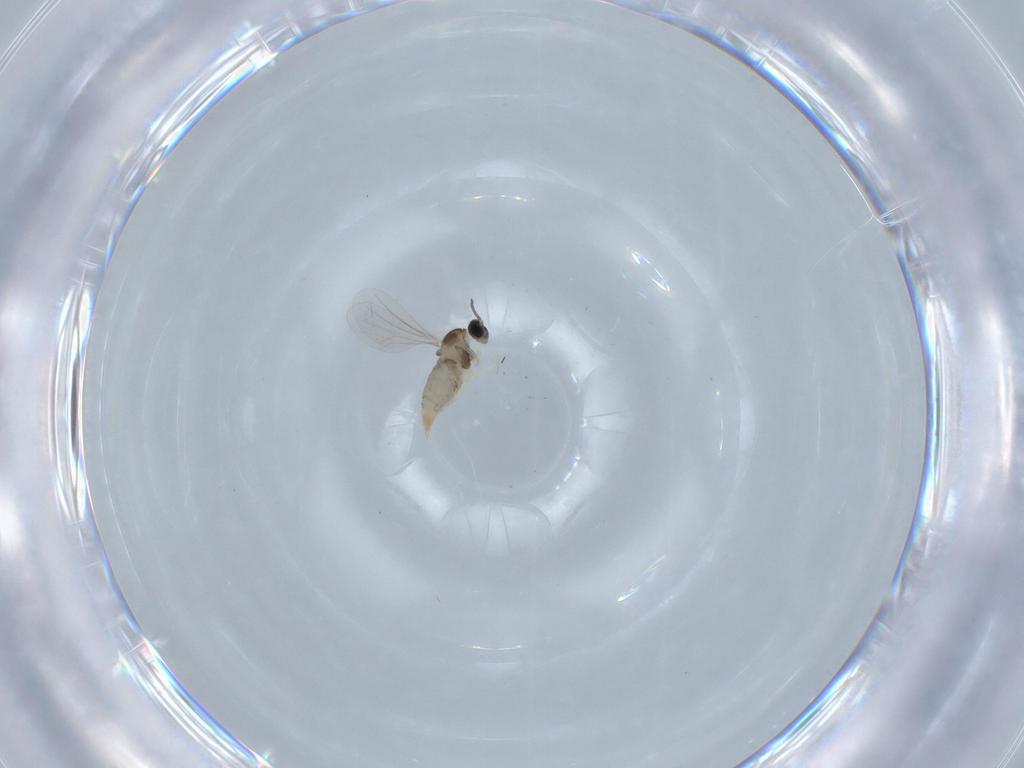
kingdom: Animalia
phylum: Arthropoda
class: Insecta
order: Diptera
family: Cecidomyiidae
